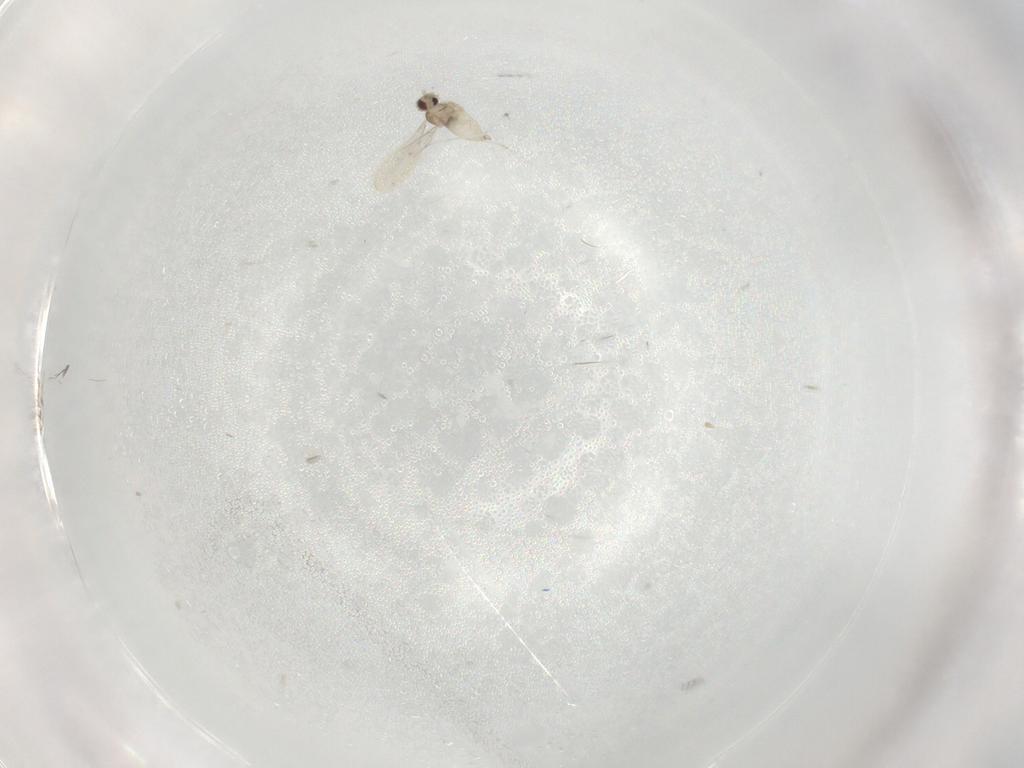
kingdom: Animalia
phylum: Arthropoda
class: Insecta
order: Diptera
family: Cecidomyiidae
